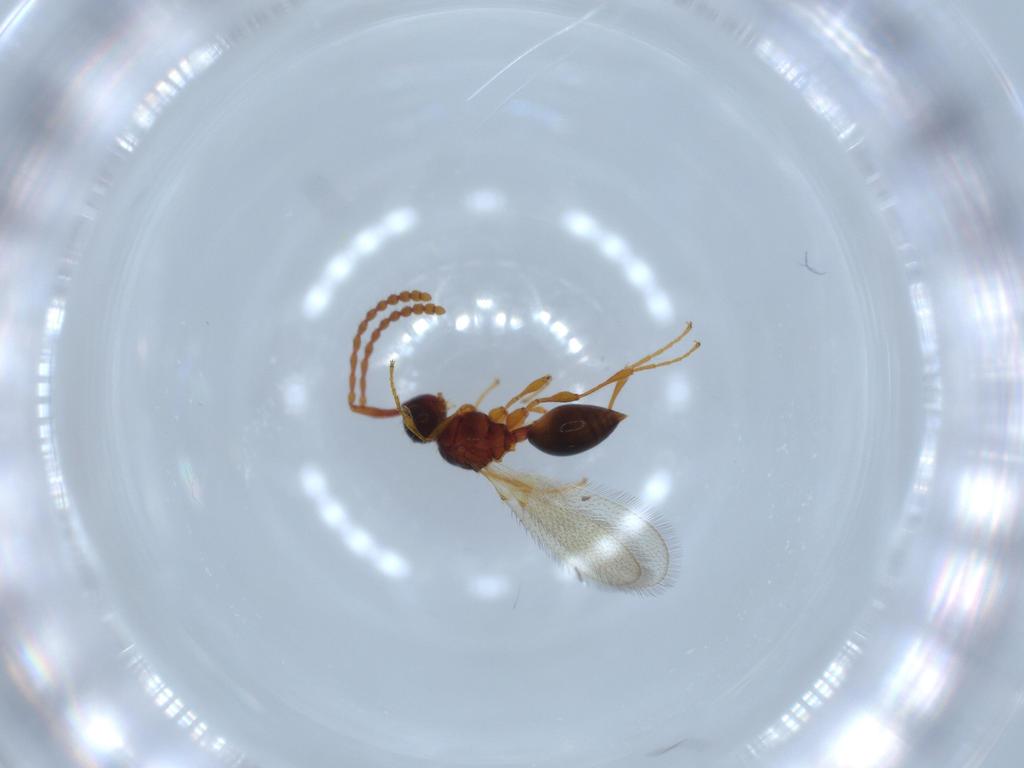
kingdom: Animalia
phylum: Arthropoda
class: Insecta
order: Hymenoptera
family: Diapriidae
